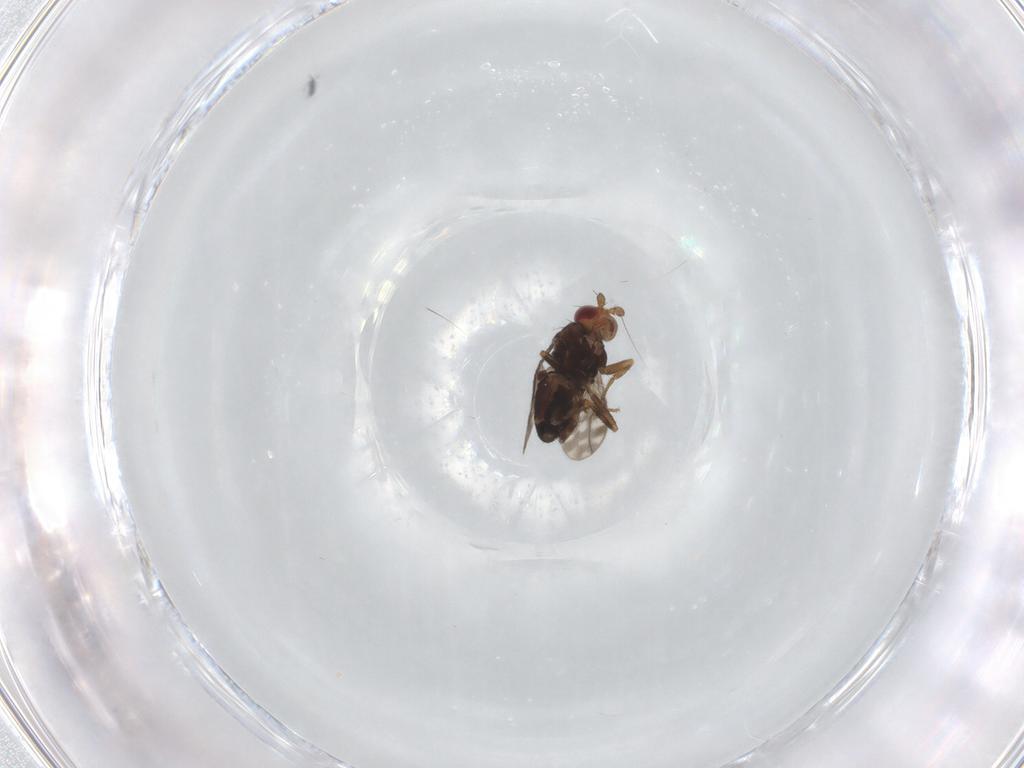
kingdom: Animalia
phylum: Arthropoda
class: Insecta
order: Diptera
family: Sphaeroceridae
